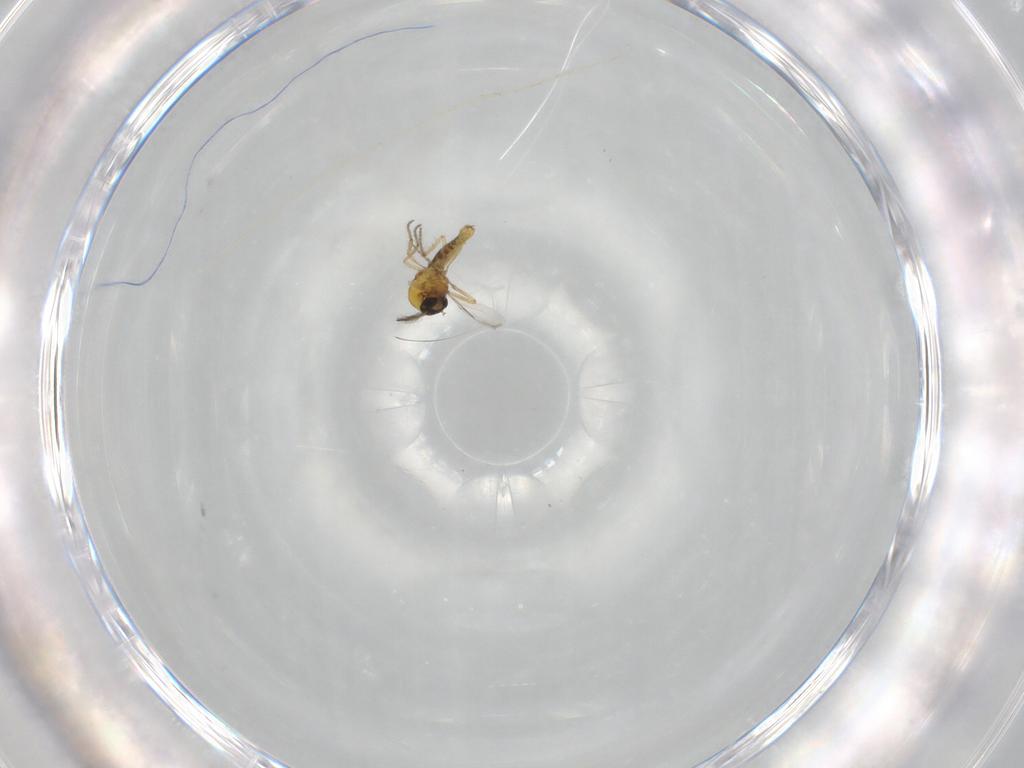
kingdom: Animalia
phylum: Arthropoda
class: Insecta
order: Diptera
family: Ceratopogonidae
